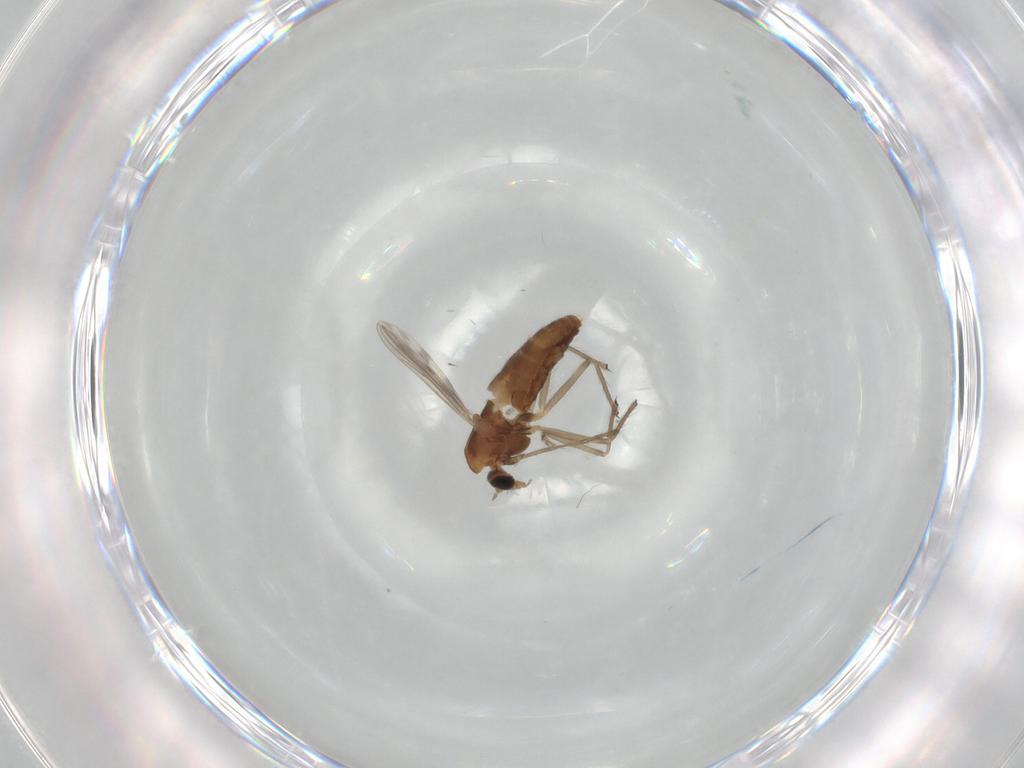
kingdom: Animalia
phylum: Arthropoda
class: Insecta
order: Diptera
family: Chironomidae
